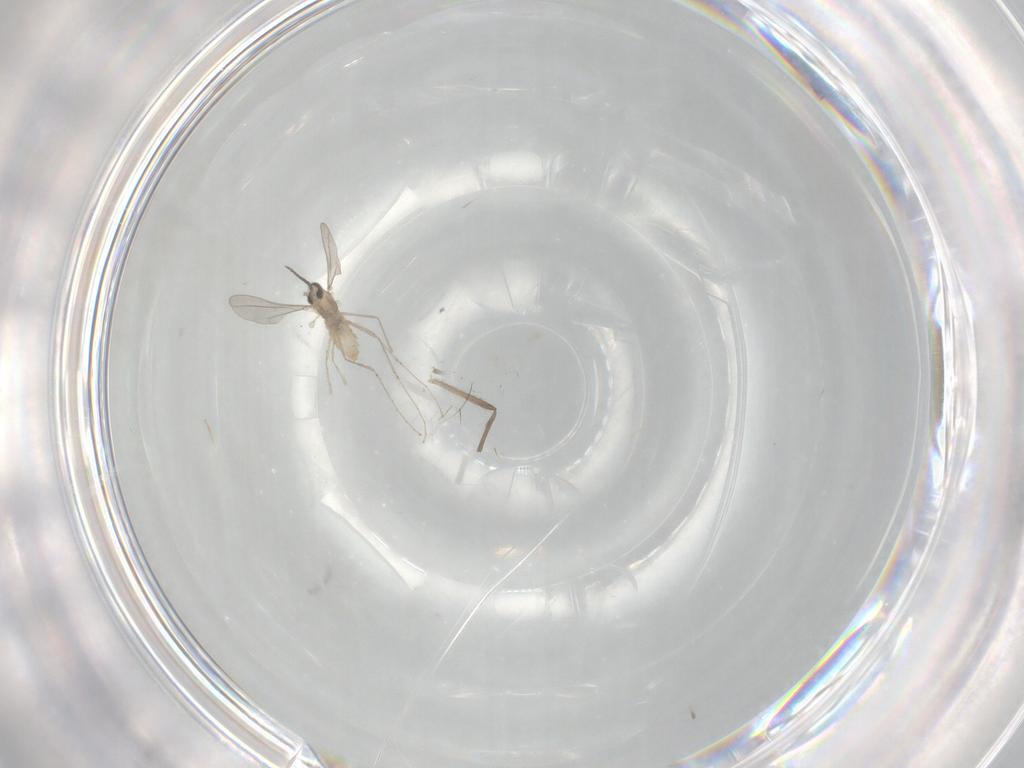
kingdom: Animalia
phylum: Arthropoda
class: Insecta
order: Diptera
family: Cecidomyiidae
